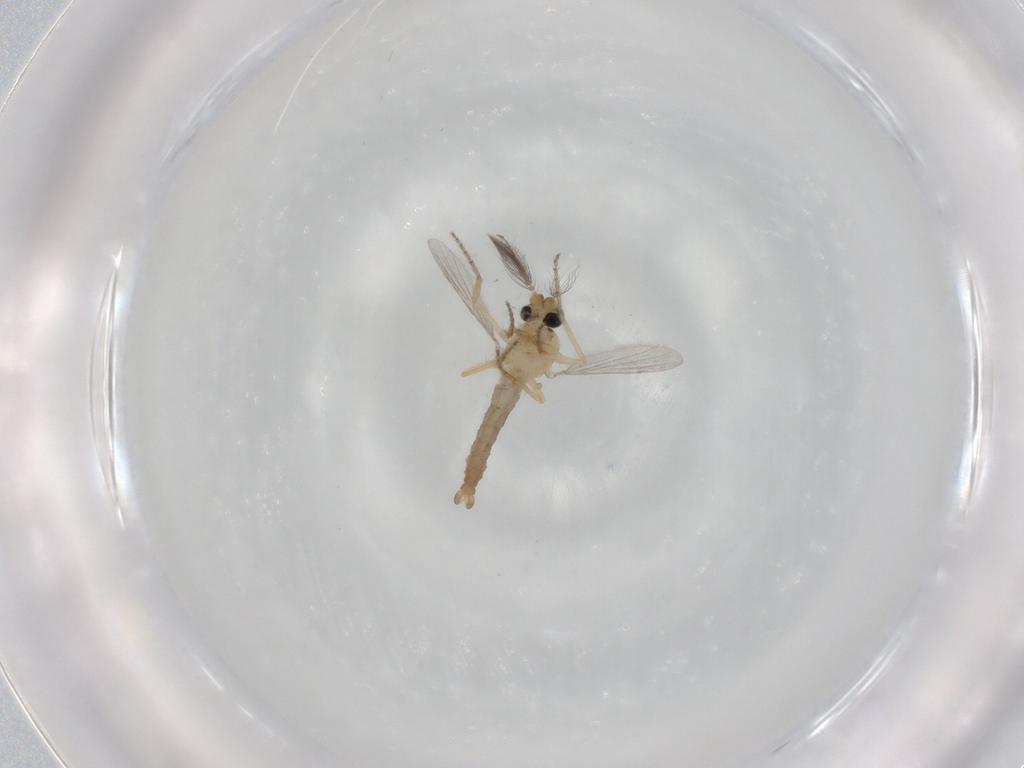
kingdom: Animalia
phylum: Arthropoda
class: Insecta
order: Diptera
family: Ceratopogonidae
